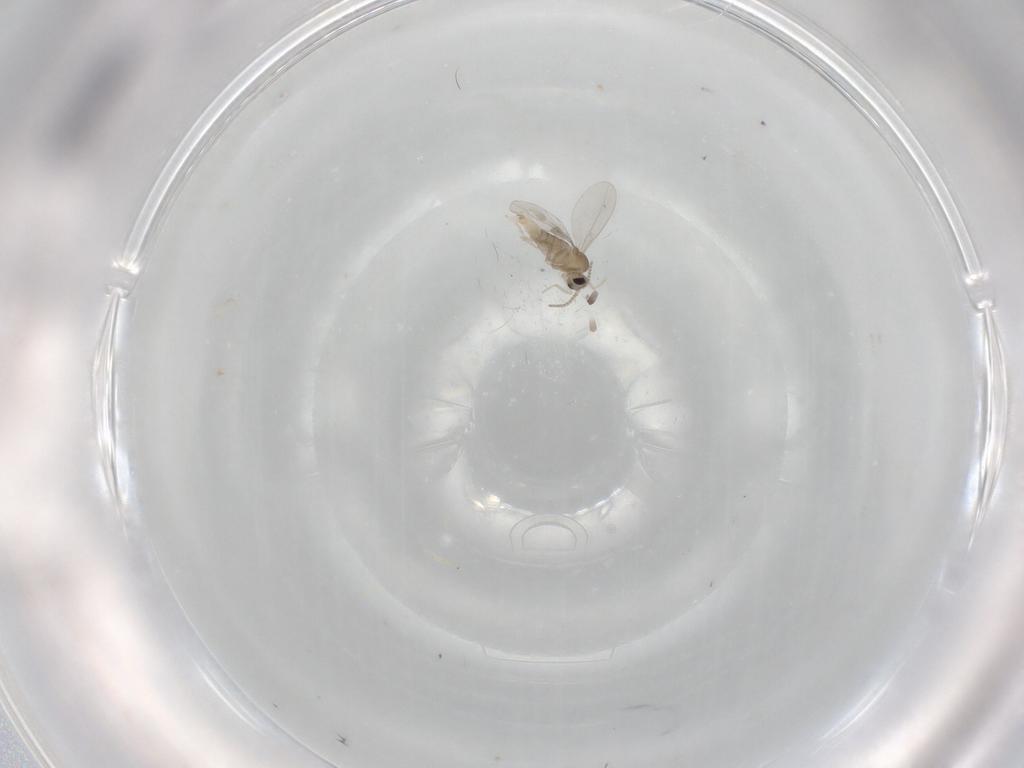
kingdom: Animalia
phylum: Arthropoda
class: Insecta
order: Diptera
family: Cecidomyiidae
